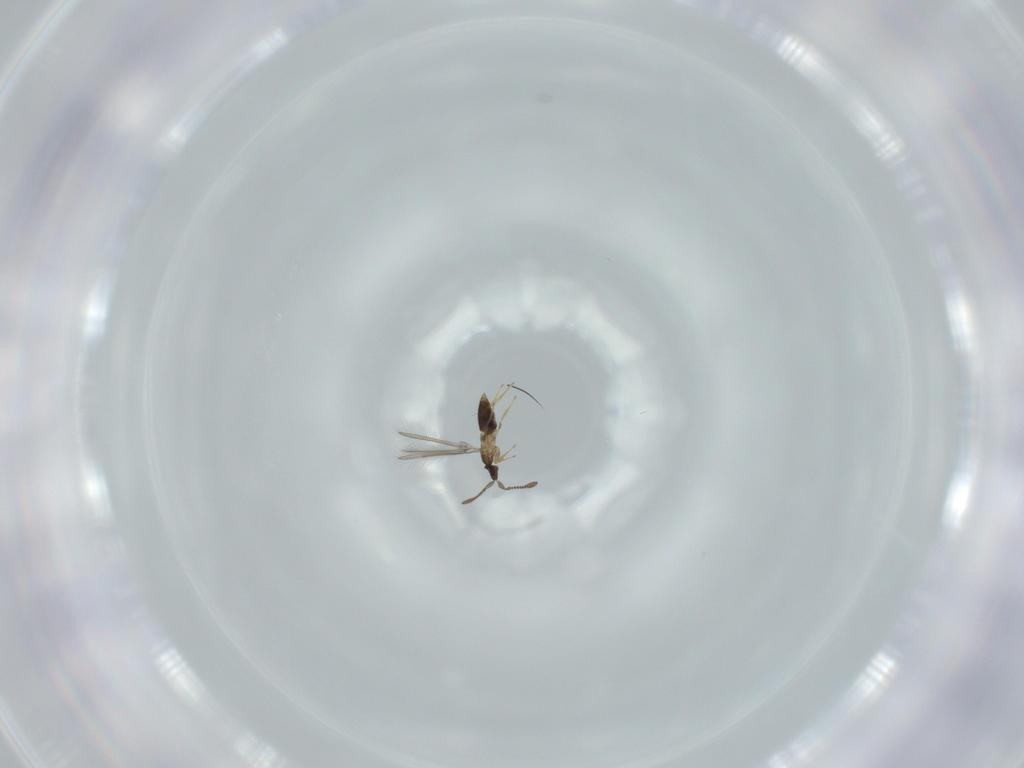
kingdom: Animalia
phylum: Arthropoda
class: Insecta
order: Hymenoptera
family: Mymaridae
